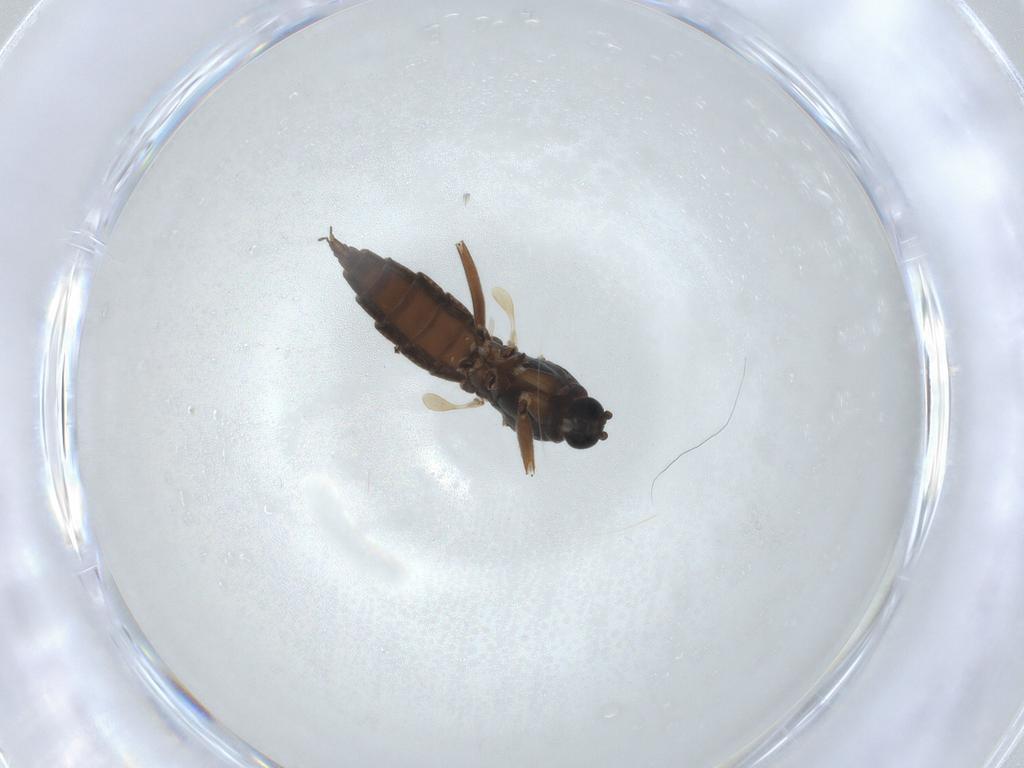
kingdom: Animalia
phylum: Arthropoda
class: Insecta
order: Diptera
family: Sciaridae
